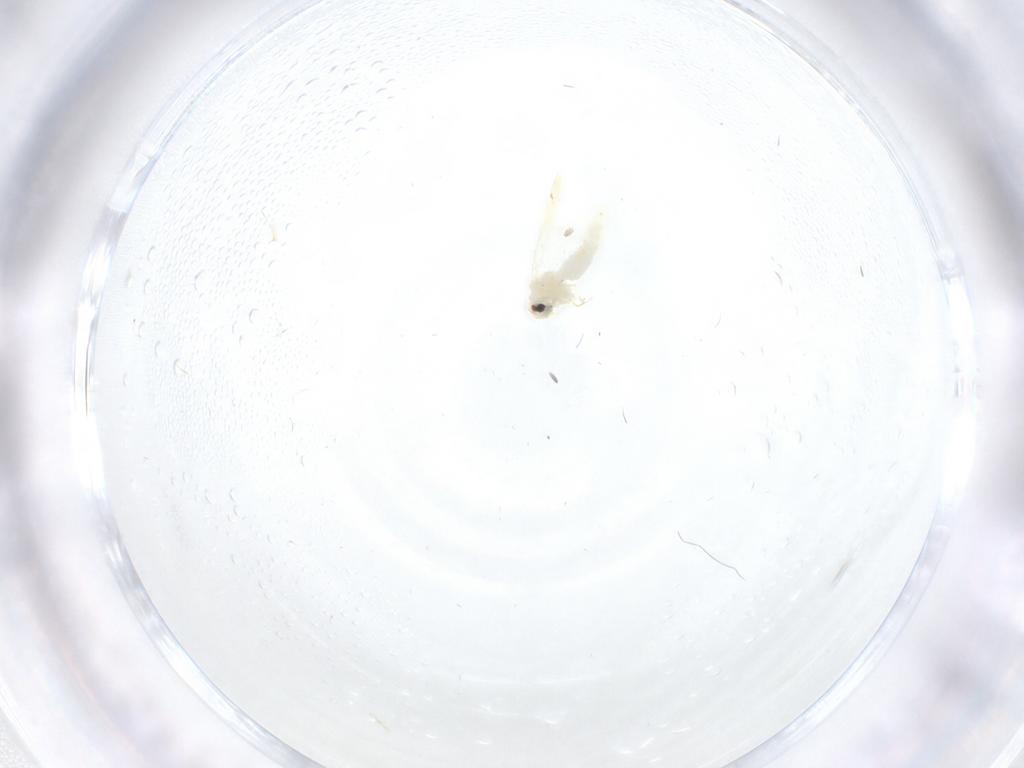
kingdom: Animalia
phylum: Arthropoda
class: Insecta
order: Hemiptera
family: Aleyrodidae
